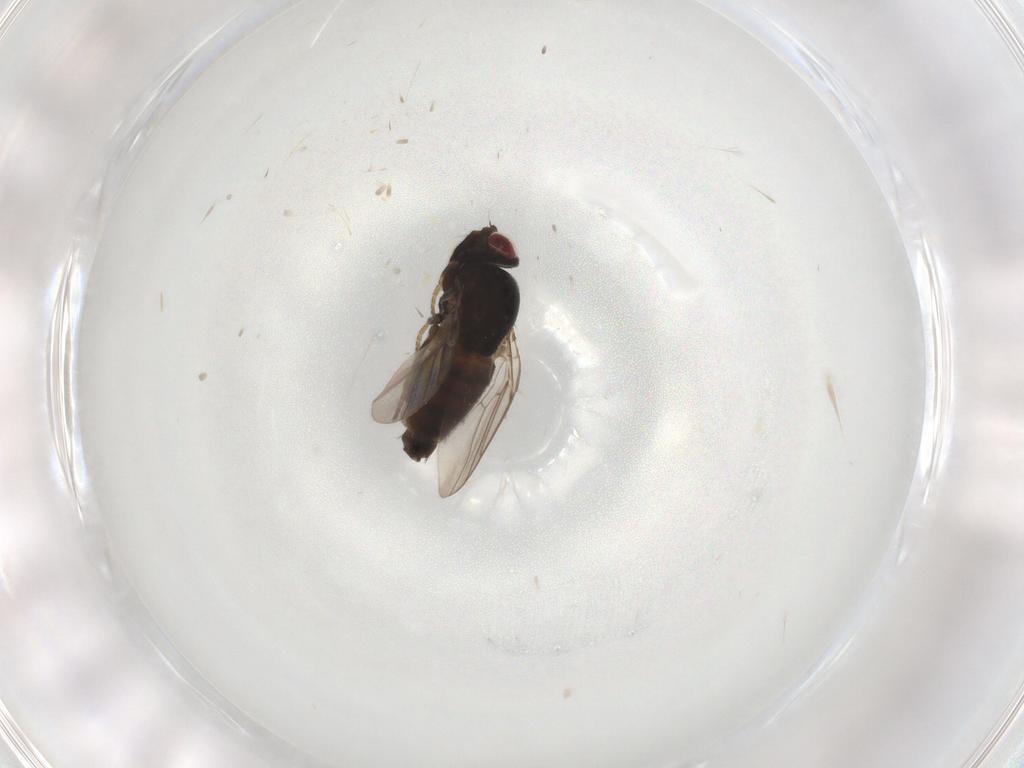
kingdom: Animalia
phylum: Arthropoda
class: Insecta
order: Diptera
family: Chloropidae
